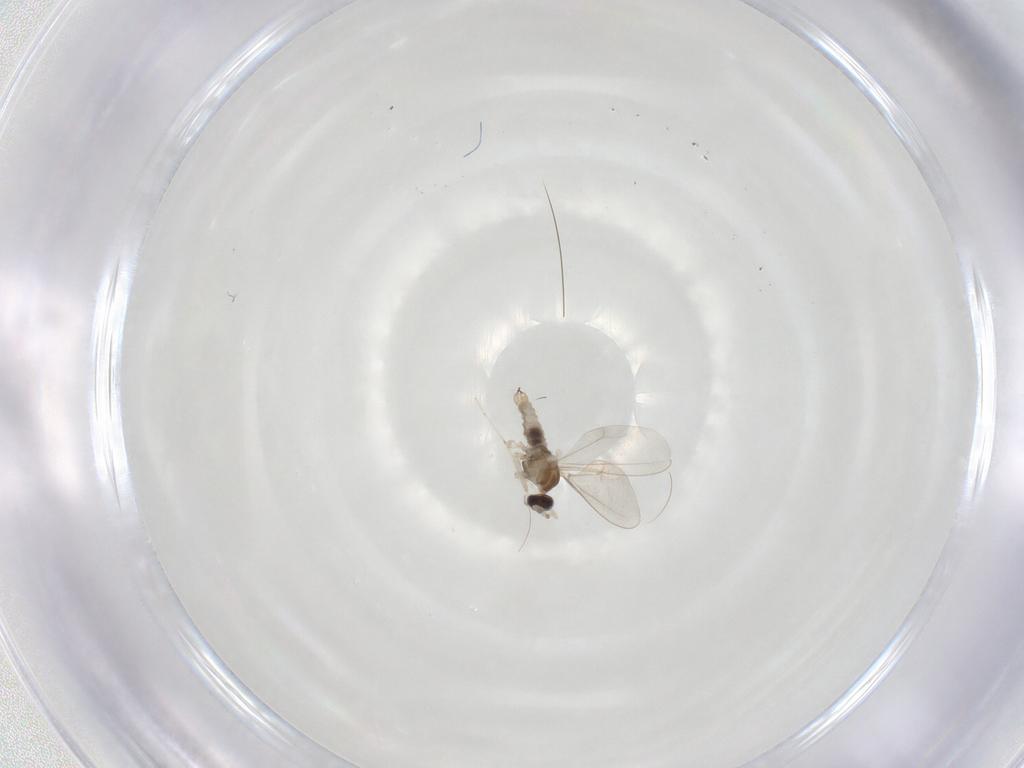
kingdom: Animalia
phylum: Arthropoda
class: Insecta
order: Diptera
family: Cecidomyiidae
